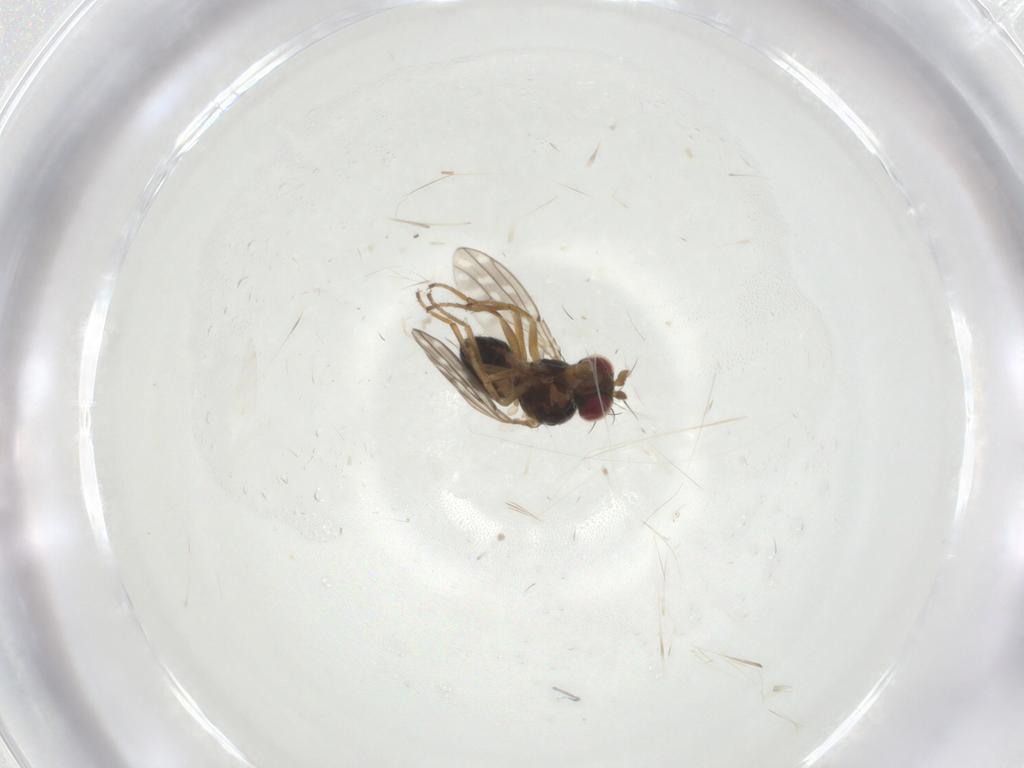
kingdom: Animalia
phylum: Arthropoda
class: Insecta
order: Diptera
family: Ephydridae
